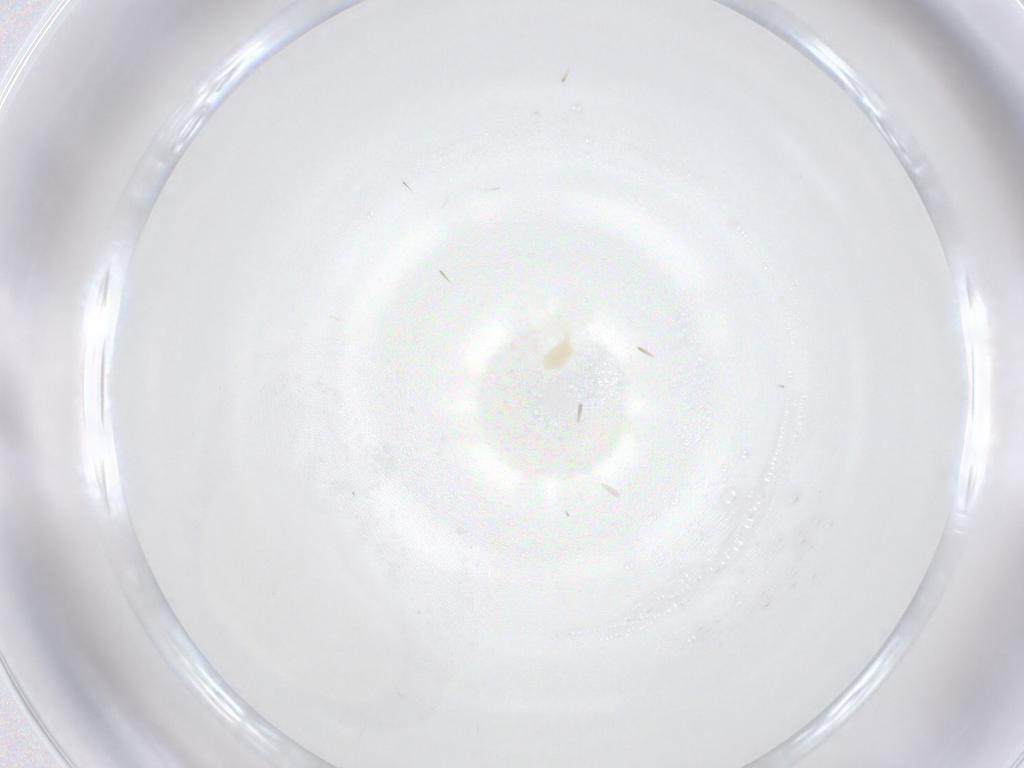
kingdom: Animalia
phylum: Arthropoda
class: Arachnida
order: Trombidiformes
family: Tetranychidae
